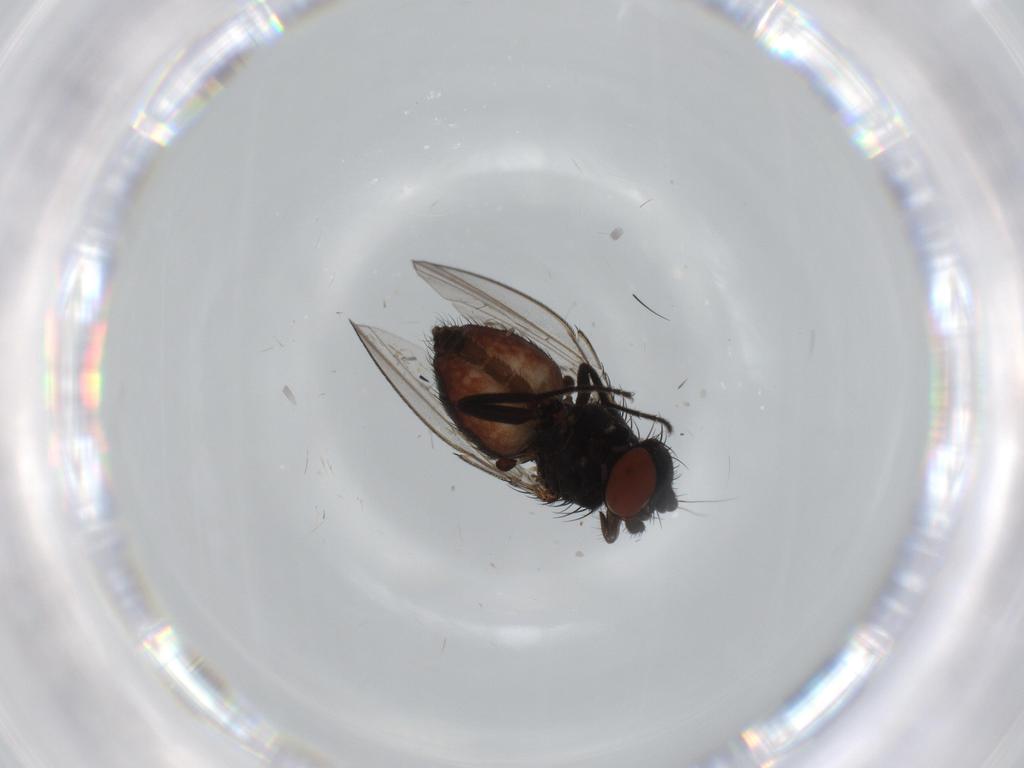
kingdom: Animalia
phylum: Arthropoda
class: Insecta
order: Diptera
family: Milichiidae
